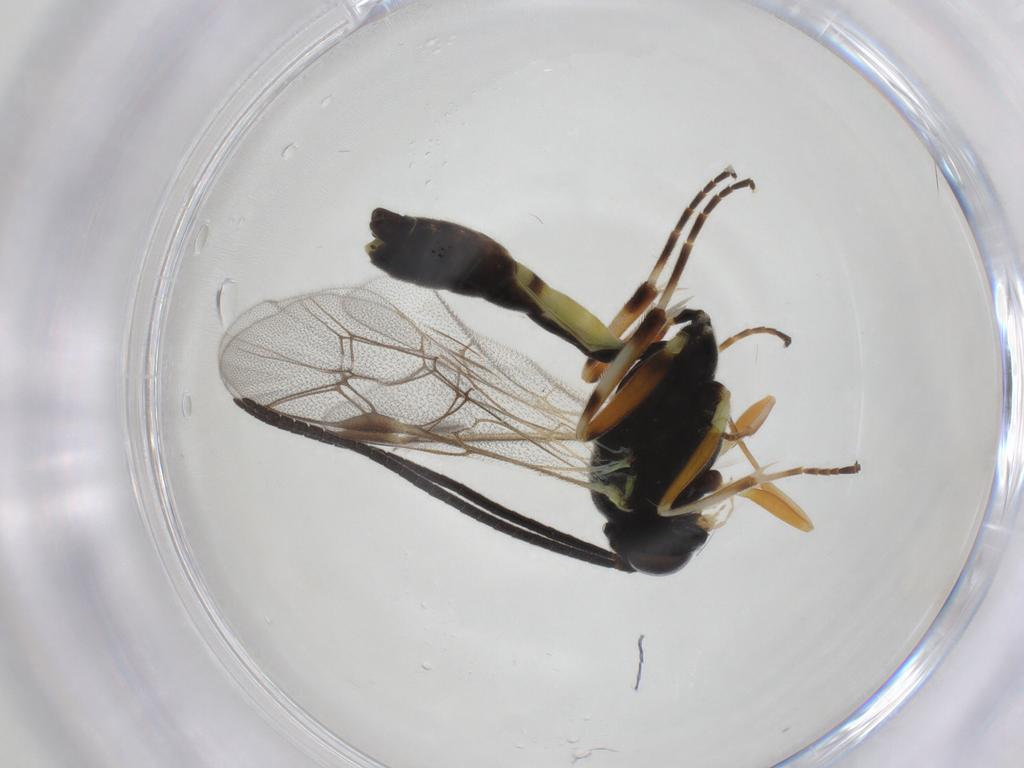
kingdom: Animalia
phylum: Arthropoda
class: Insecta
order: Hymenoptera
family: Ichneumonidae
